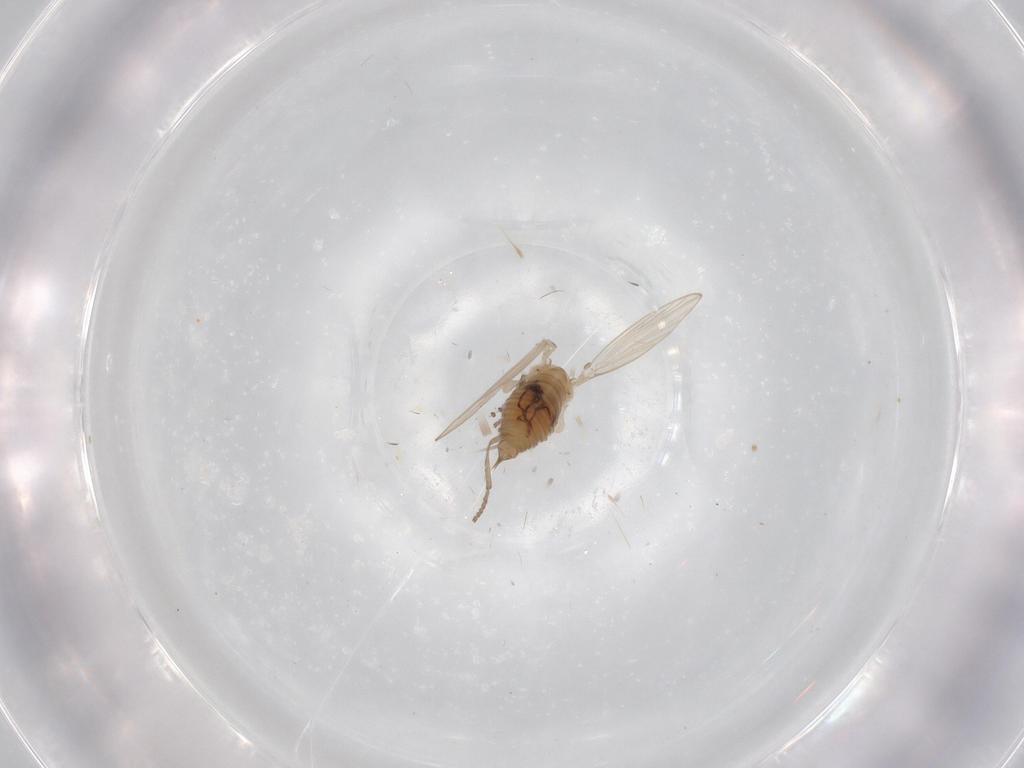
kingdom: Animalia
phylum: Arthropoda
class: Insecta
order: Diptera
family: Psychodidae
